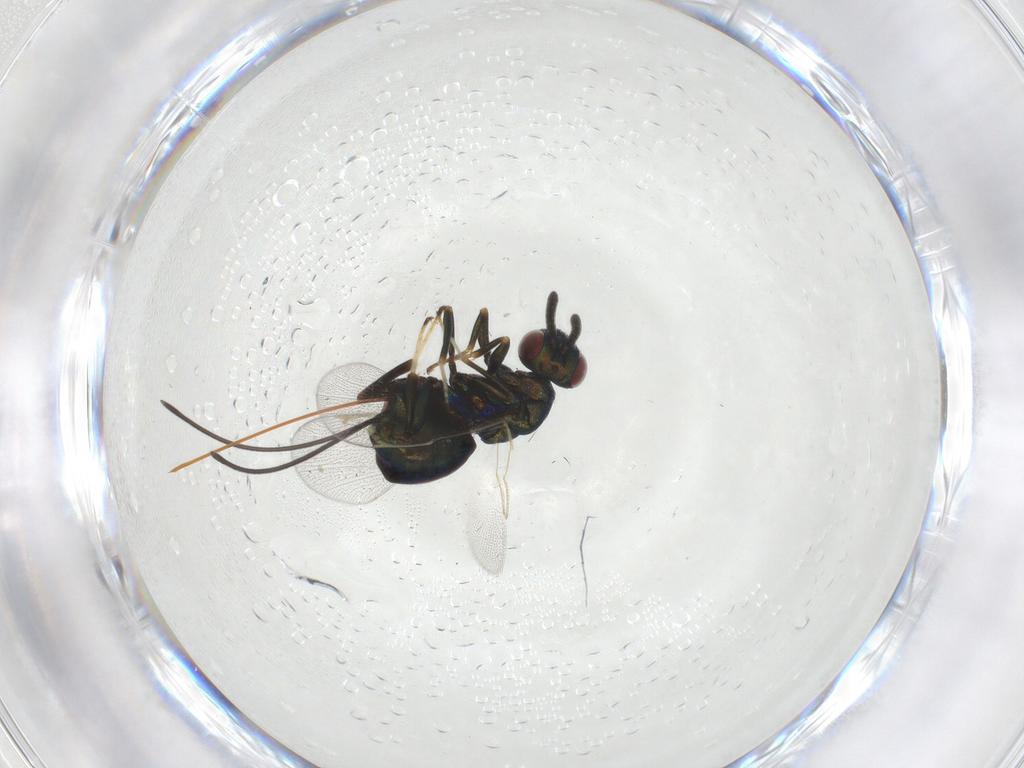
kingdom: Animalia
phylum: Arthropoda
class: Insecta
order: Hymenoptera
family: Torymidae
